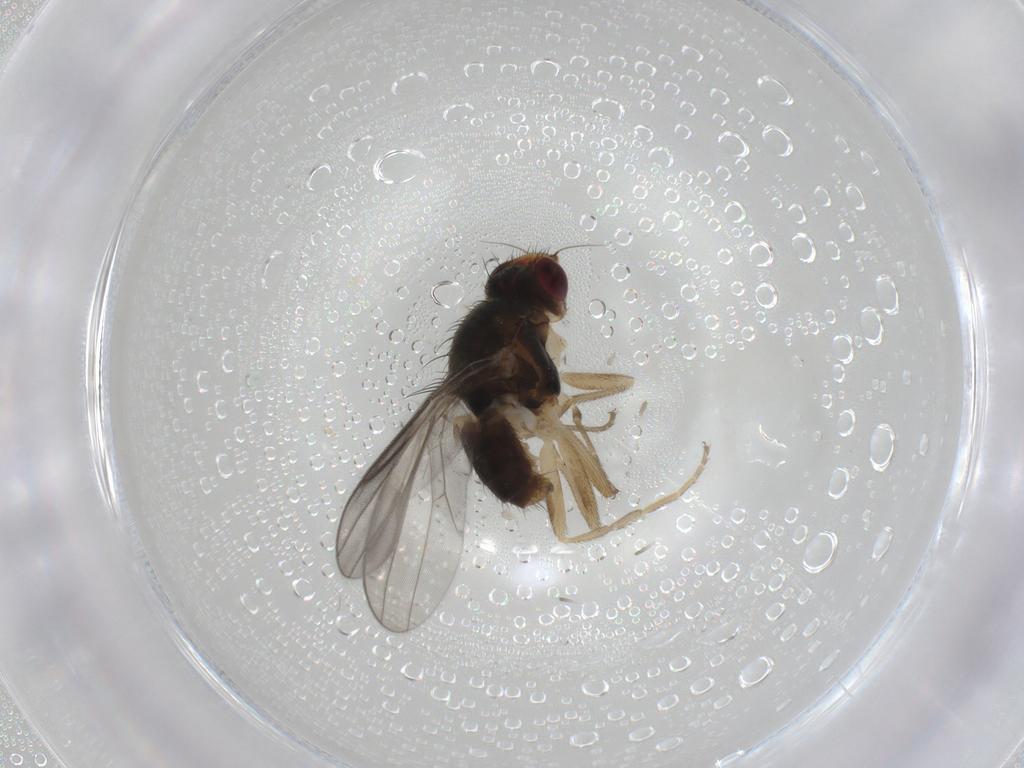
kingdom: Animalia
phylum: Arthropoda
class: Insecta
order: Diptera
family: Chloropidae
